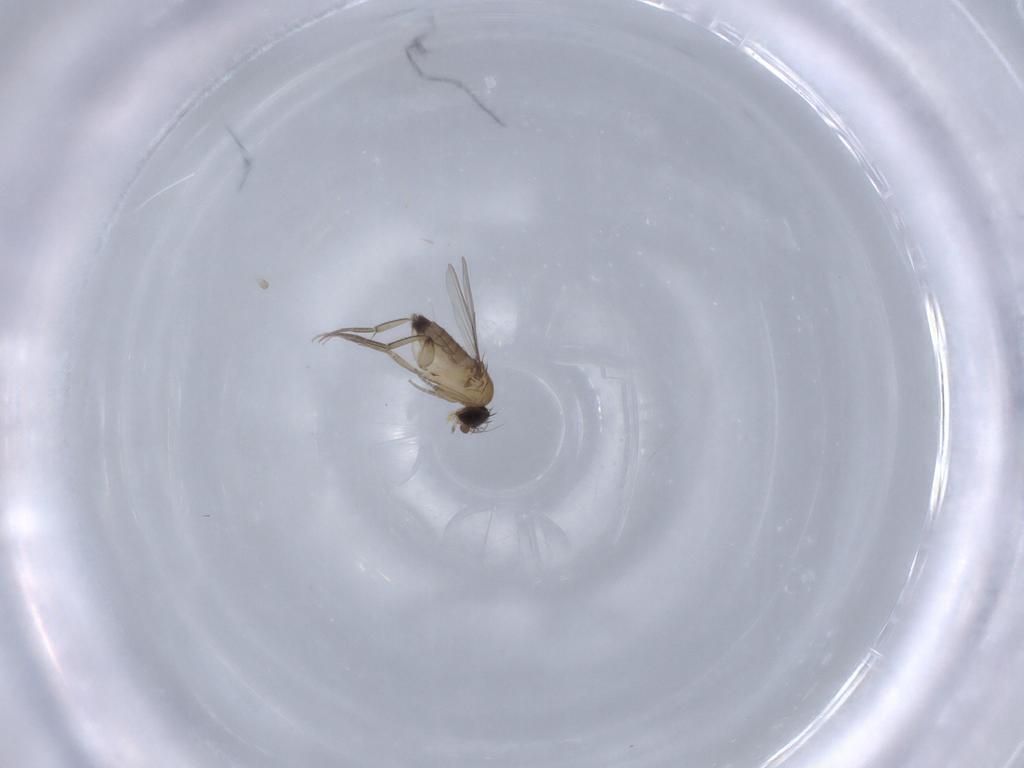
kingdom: Animalia
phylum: Arthropoda
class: Insecta
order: Diptera
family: Phoridae
